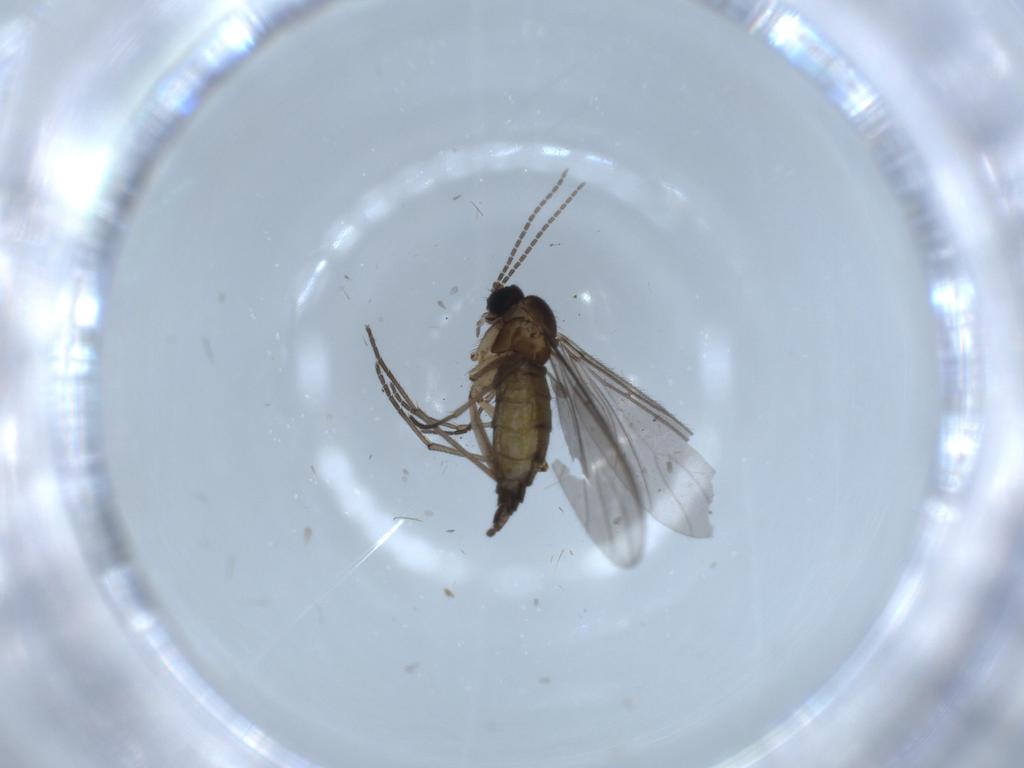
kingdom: Animalia
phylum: Arthropoda
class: Insecta
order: Diptera
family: Sciaridae
